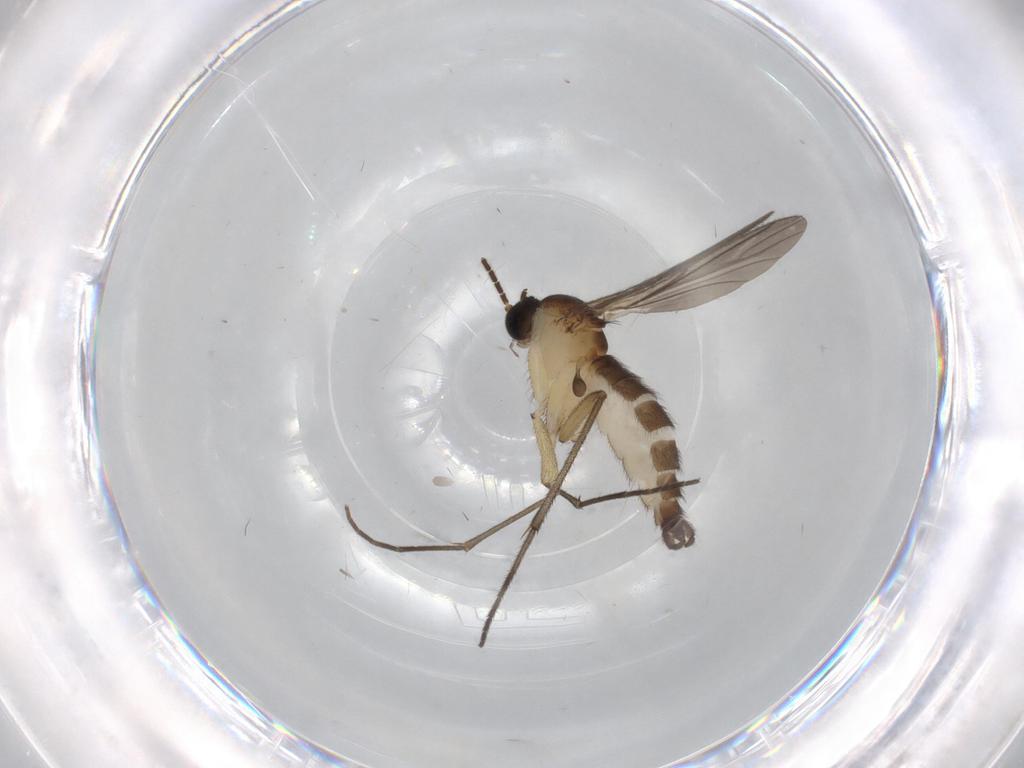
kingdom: Animalia
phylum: Arthropoda
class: Insecta
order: Diptera
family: Sciaridae
